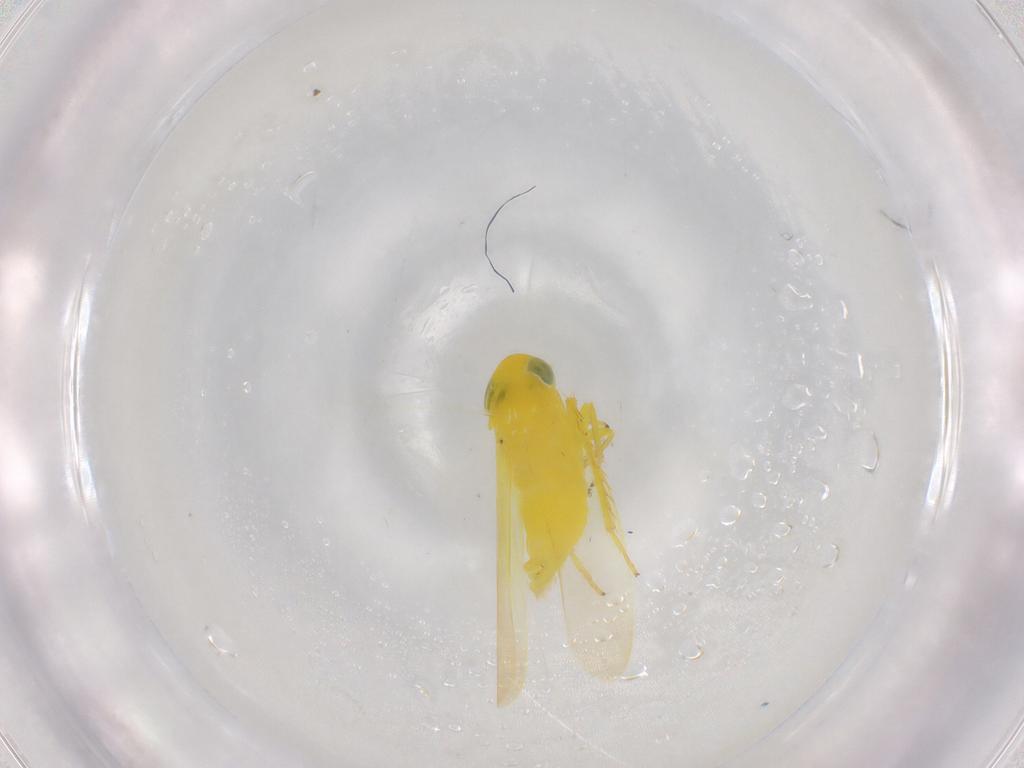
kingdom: Animalia
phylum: Arthropoda
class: Insecta
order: Hemiptera
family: Cicadellidae
